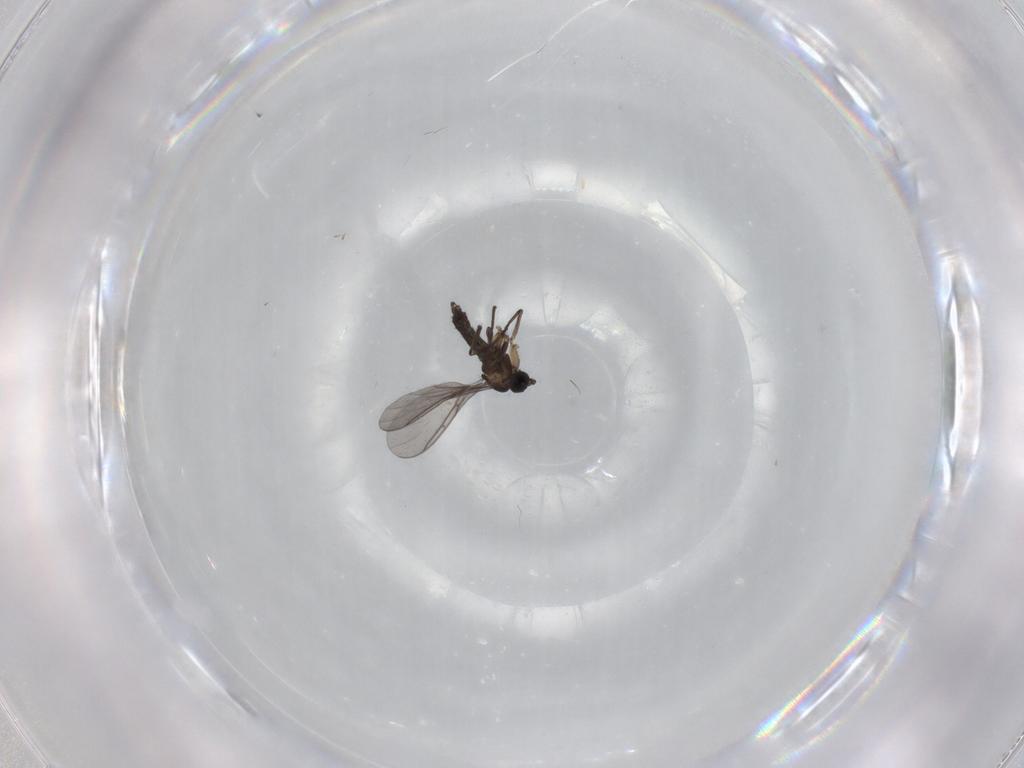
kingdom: Animalia
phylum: Arthropoda
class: Insecta
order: Diptera
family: Sciaridae
